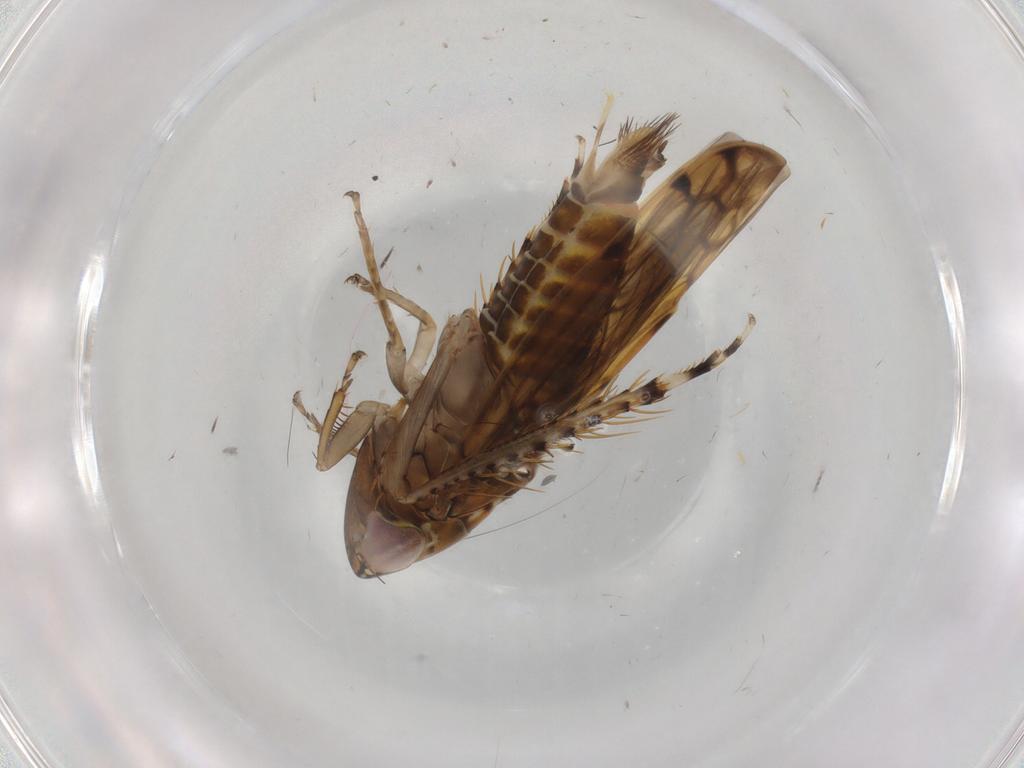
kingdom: Animalia
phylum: Arthropoda
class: Insecta
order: Hemiptera
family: Cicadellidae
